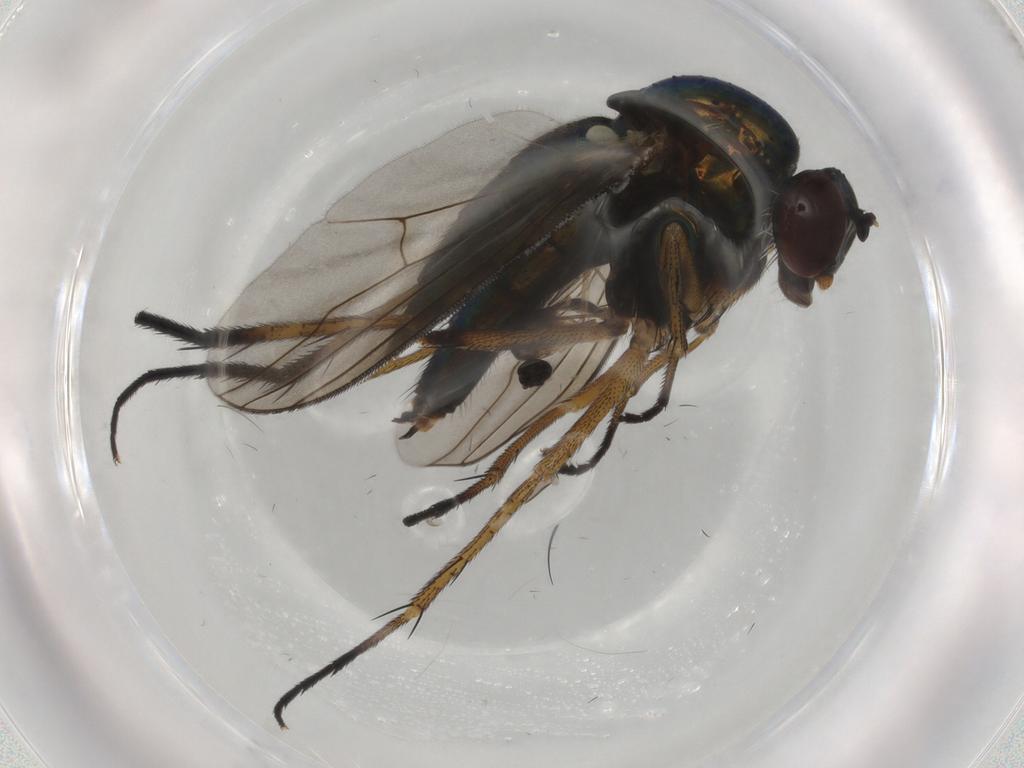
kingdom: Animalia
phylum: Arthropoda
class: Insecta
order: Diptera
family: Dolichopodidae
